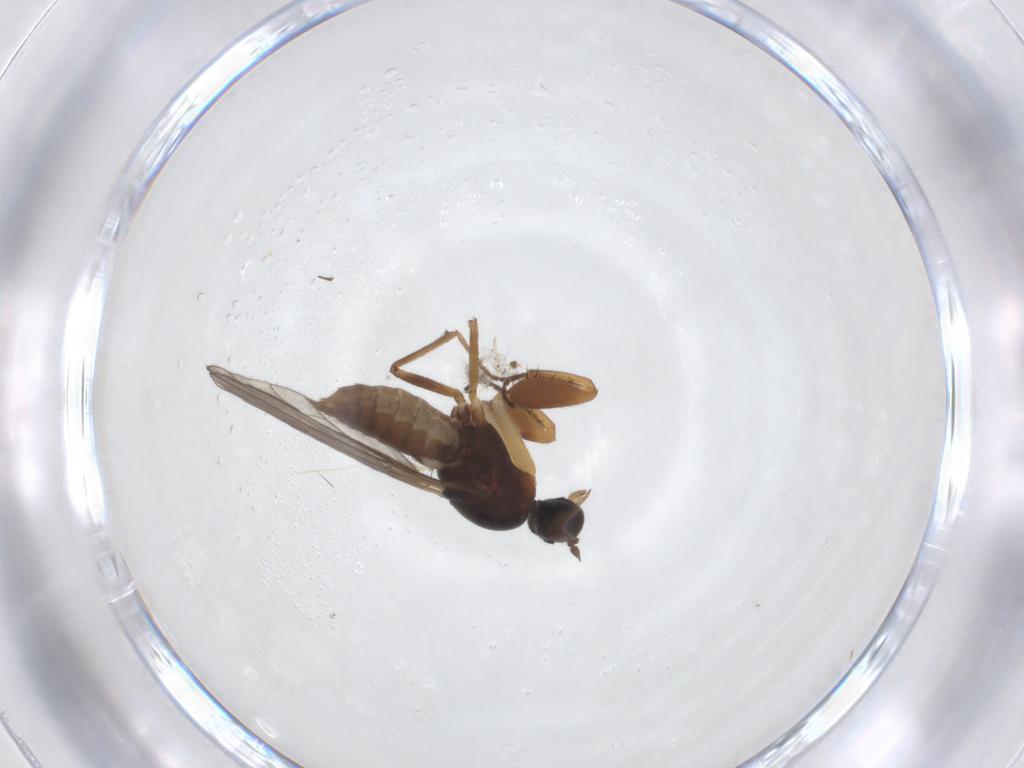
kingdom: Animalia
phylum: Arthropoda
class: Insecta
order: Diptera
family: Empididae
